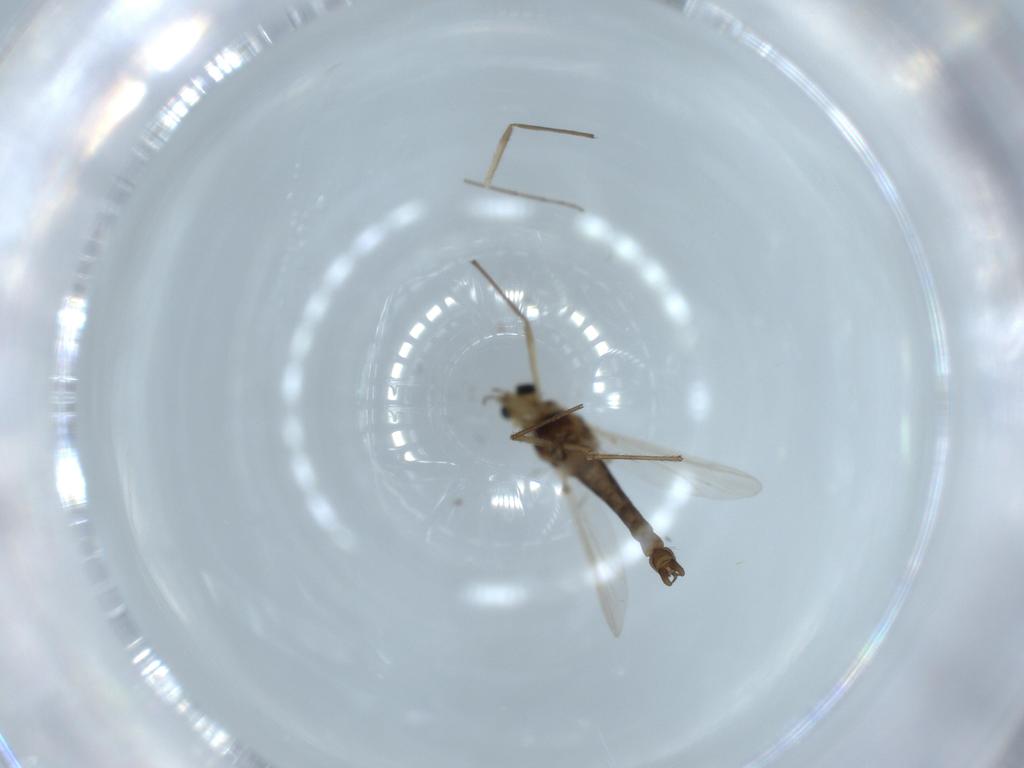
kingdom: Animalia
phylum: Arthropoda
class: Insecta
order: Diptera
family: Chironomidae
